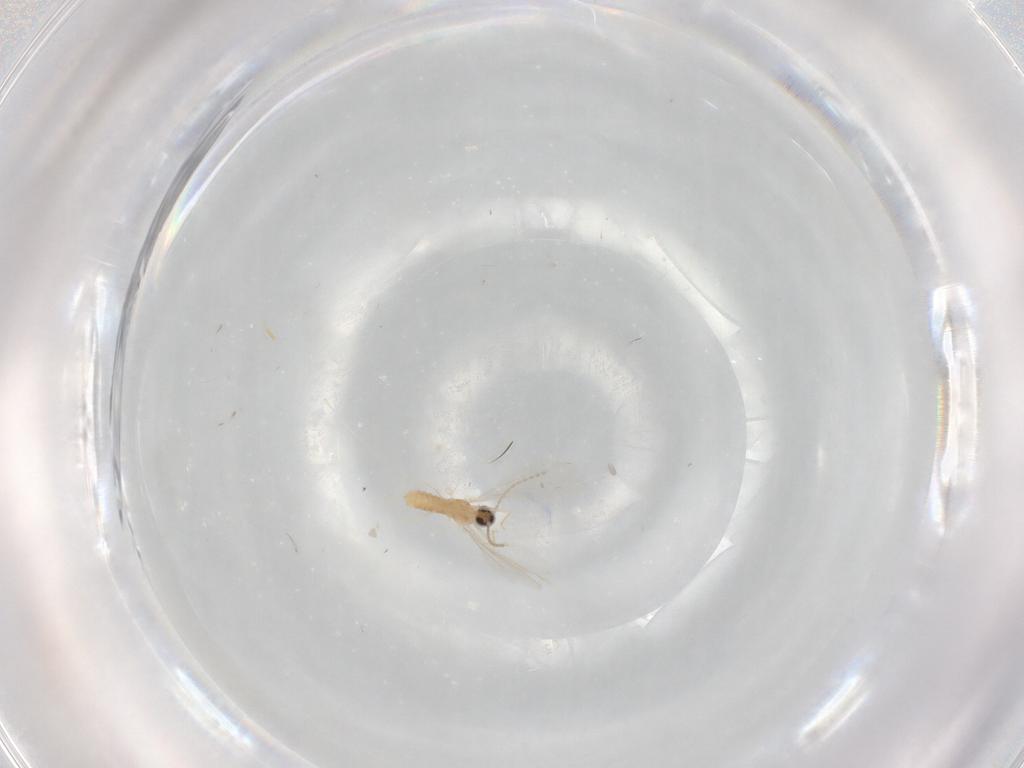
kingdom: Animalia
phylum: Arthropoda
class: Insecta
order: Diptera
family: Cecidomyiidae
